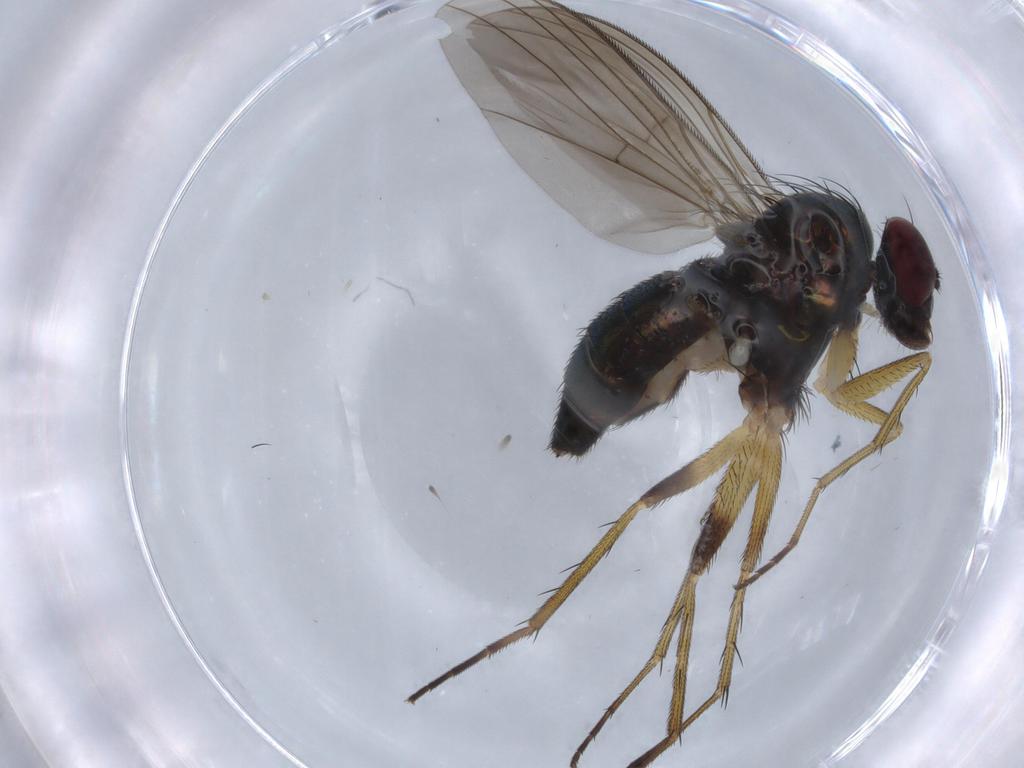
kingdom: Animalia
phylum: Arthropoda
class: Insecta
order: Diptera
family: Dolichopodidae
